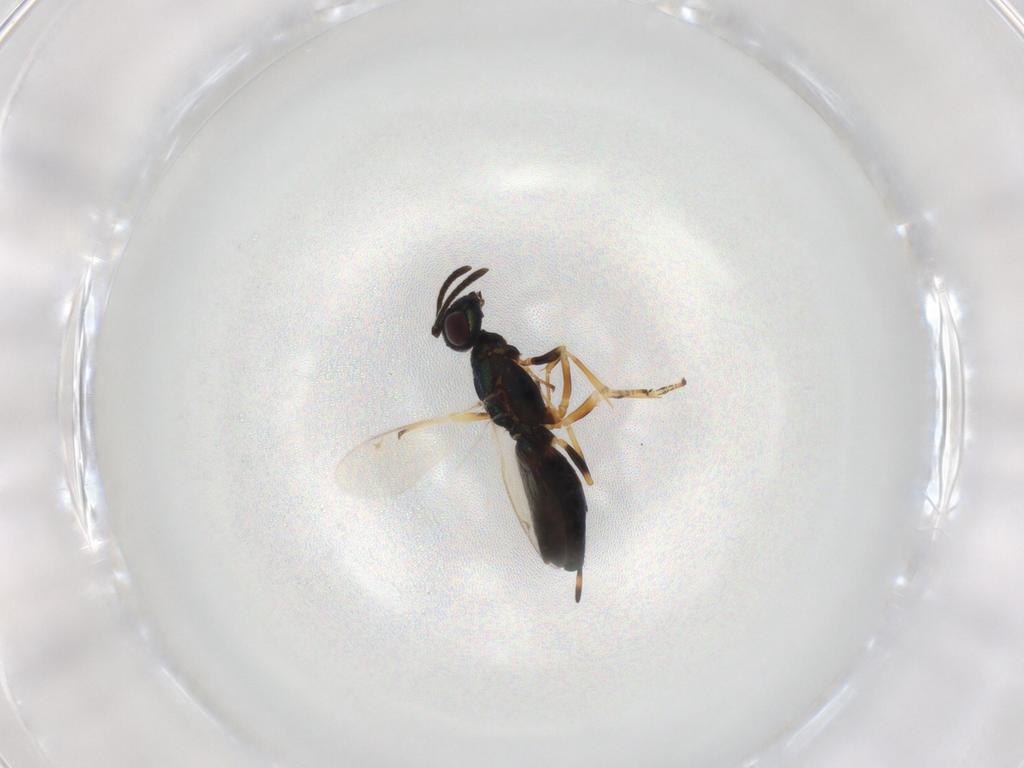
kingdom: Animalia
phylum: Arthropoda
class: Insecta
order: Hymenoptera
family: Eupelmidae
